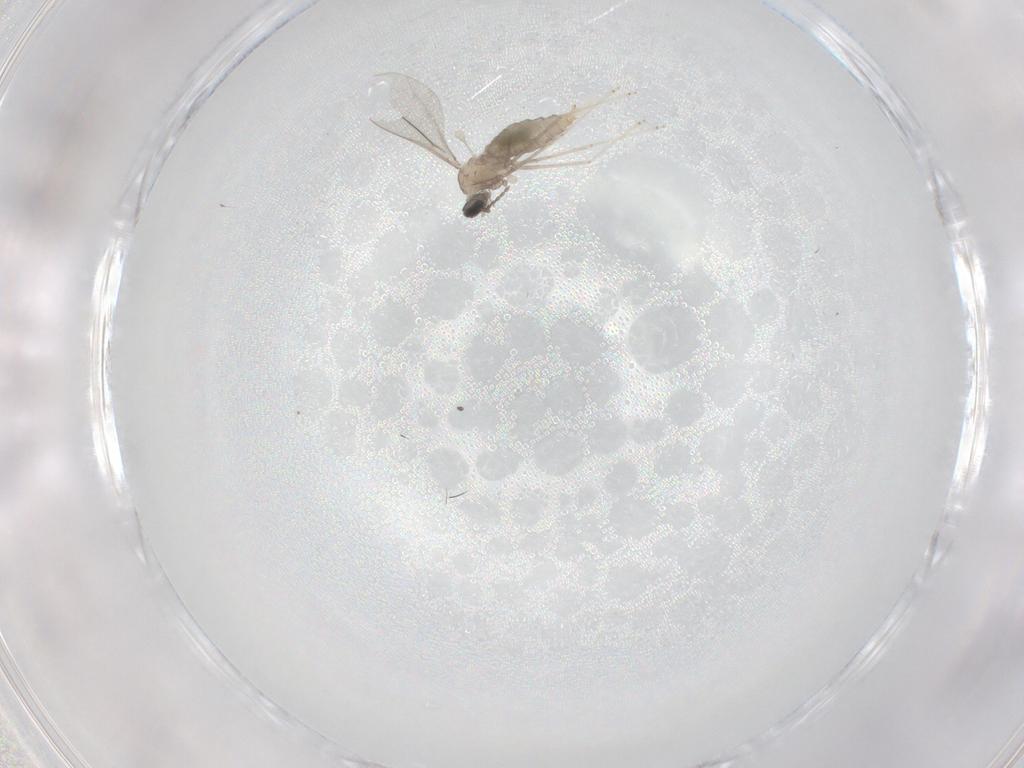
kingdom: Animalia
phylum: Arthropoda
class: Insecta
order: Diptera
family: Cecidomyiidae
